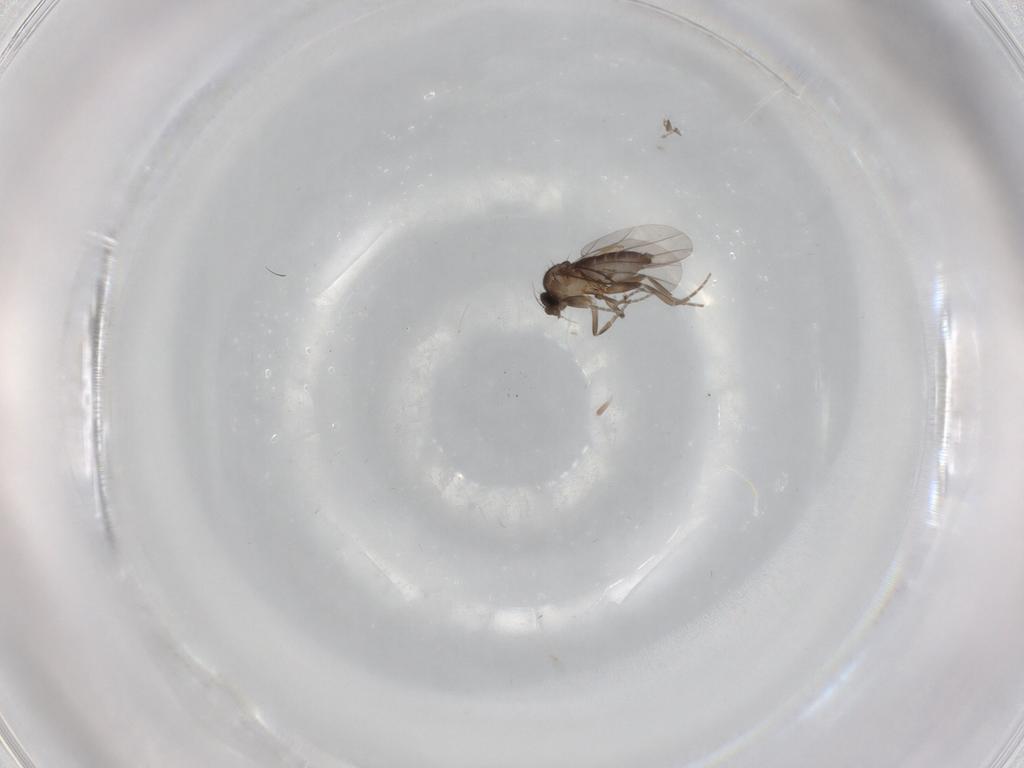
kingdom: Animalia
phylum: Arthropoda
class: Insecta
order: Diptera
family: Phoridae
